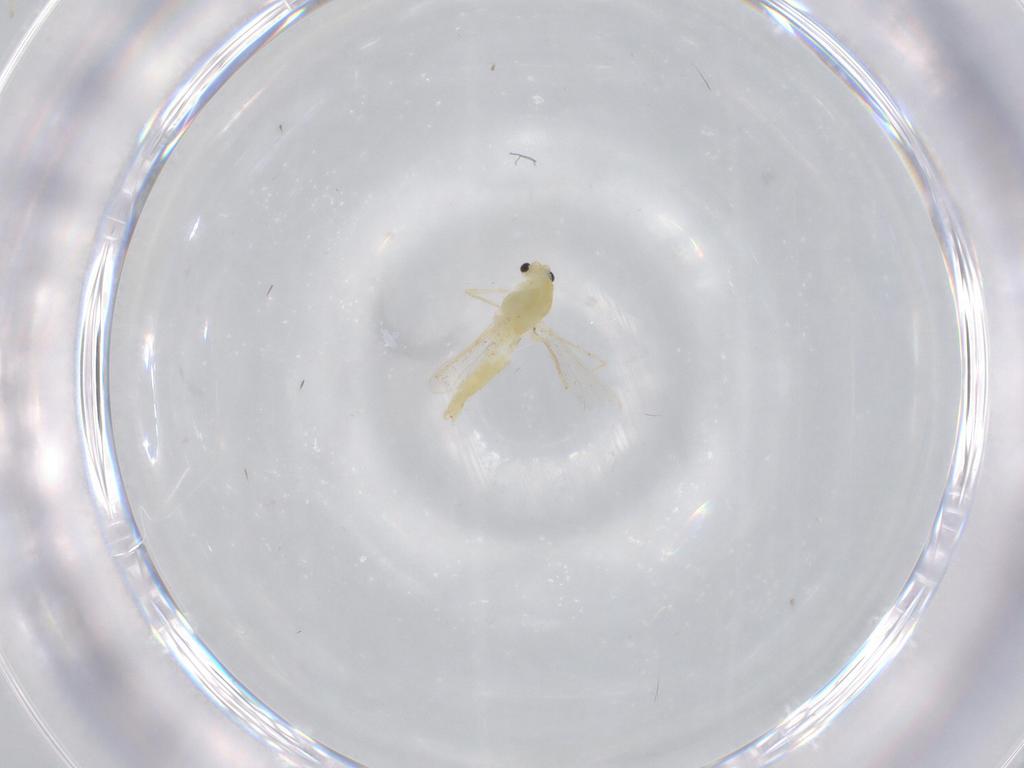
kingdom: Animalia
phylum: Arthropoda
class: Insecta
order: Diptera
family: Chironomidae
